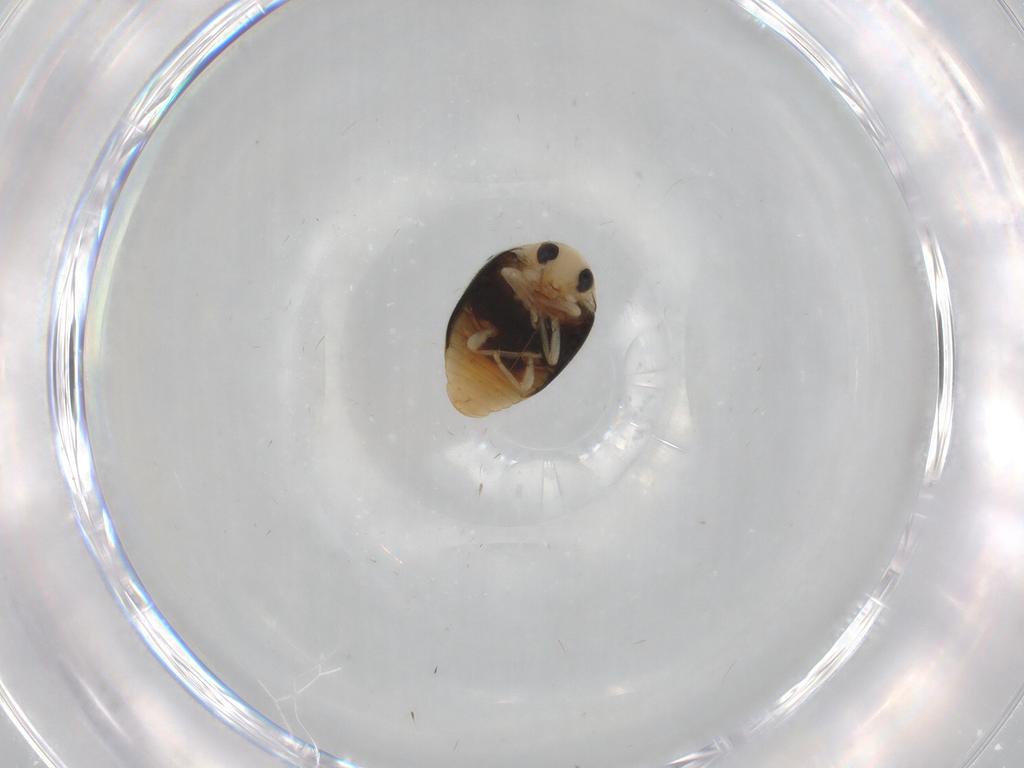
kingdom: Animalia
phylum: Arthropoda
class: Insecta
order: Coleoptera
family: Coccinellidae
